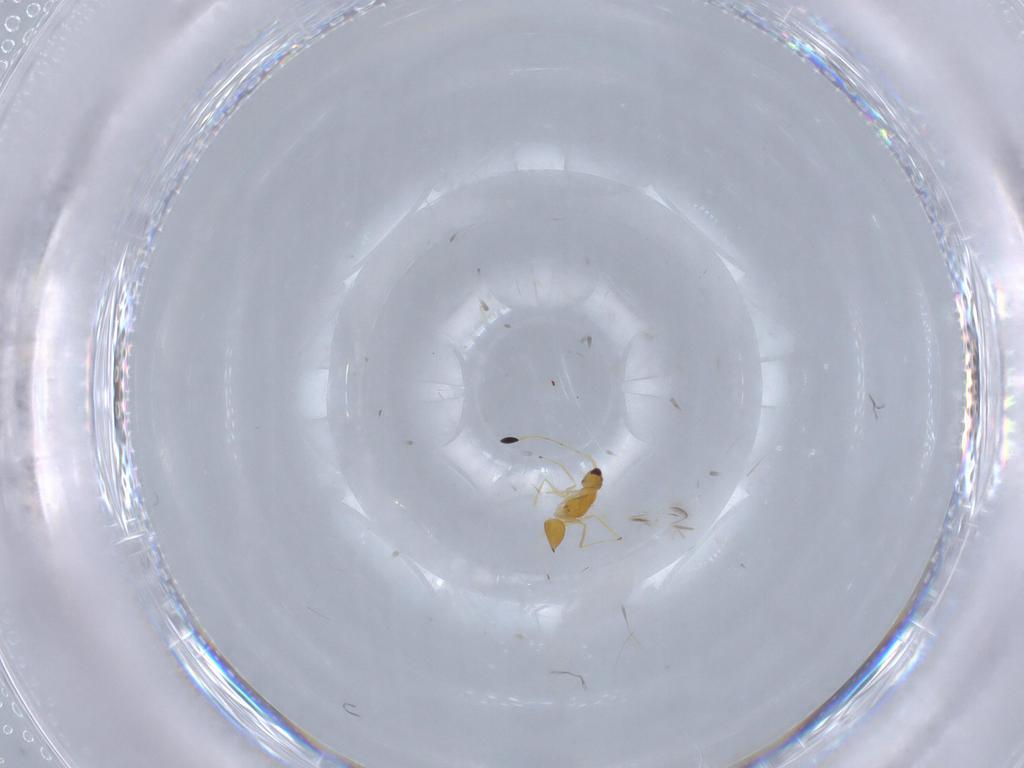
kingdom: Animalia
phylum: Arthropoda
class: Insecta
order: Hymenoptera
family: Mymaridae
